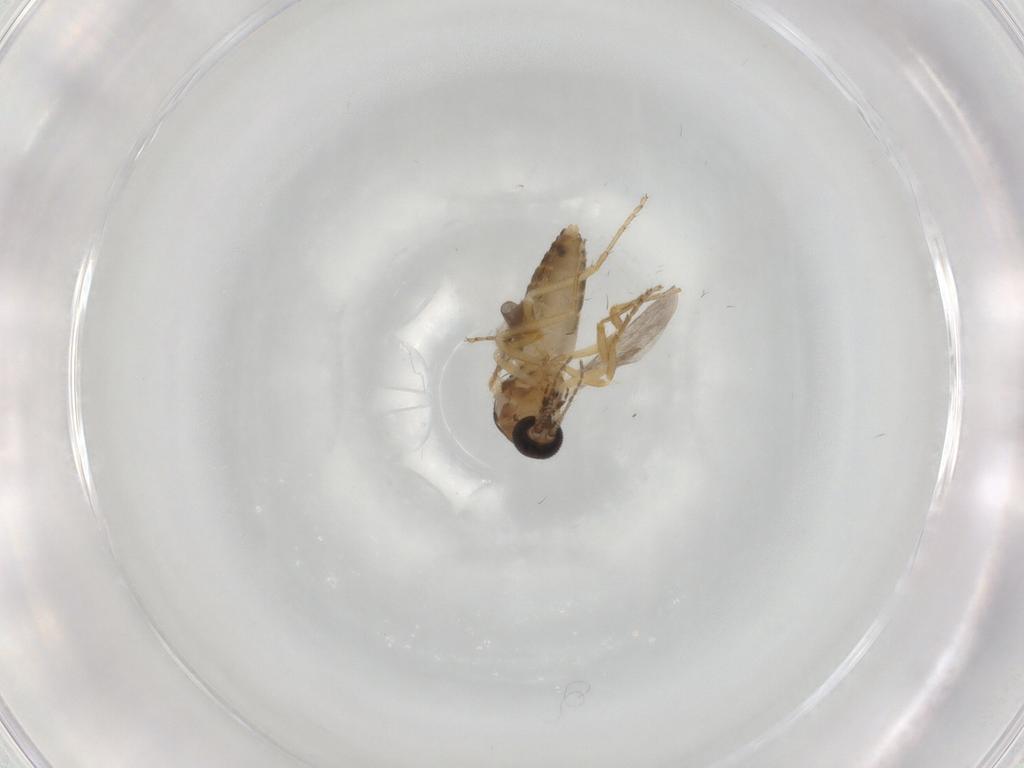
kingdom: Animalia
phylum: Arthropoda
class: Insecta
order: Diptera
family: Ceratopogonidae
